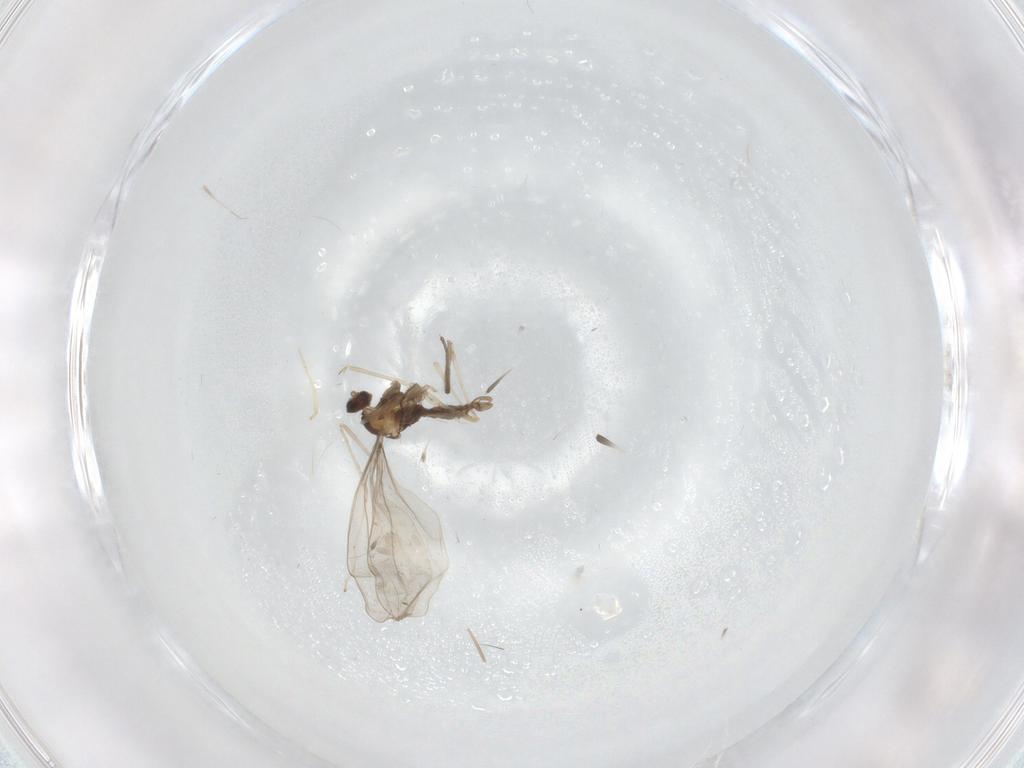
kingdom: Animalia
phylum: Arthropoda
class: Insecta
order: Diptera
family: Cecidomyiidae
